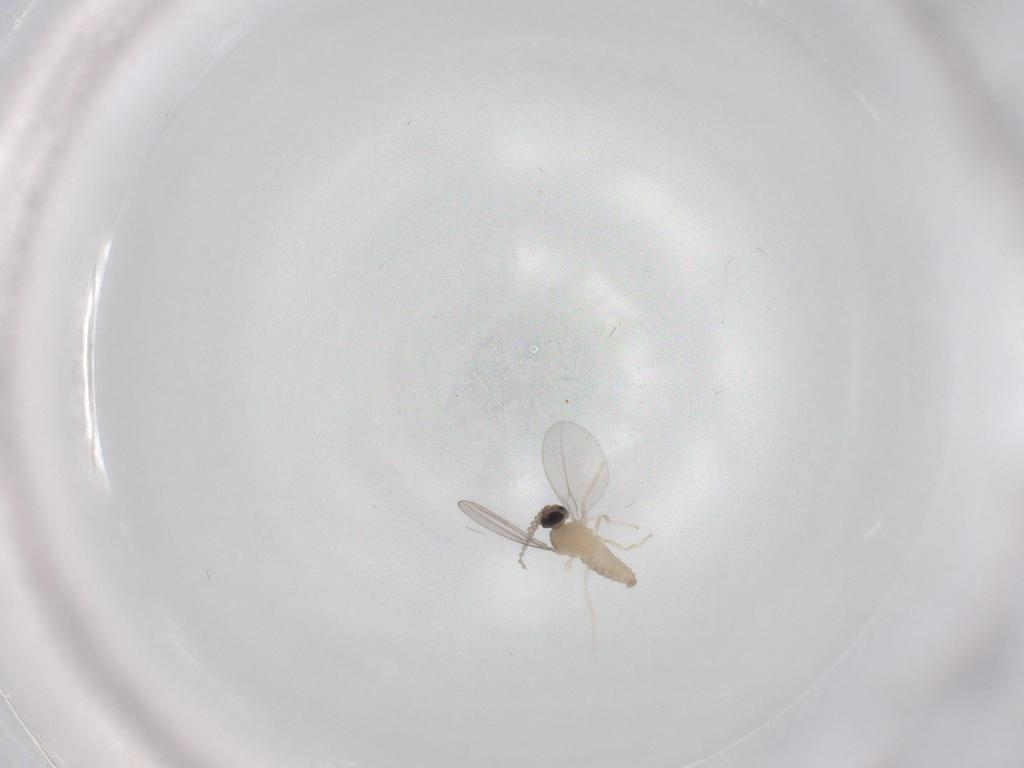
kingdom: Animalia
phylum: Arthropoda
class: Insecta
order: Diptera
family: Cecidomyiidae
